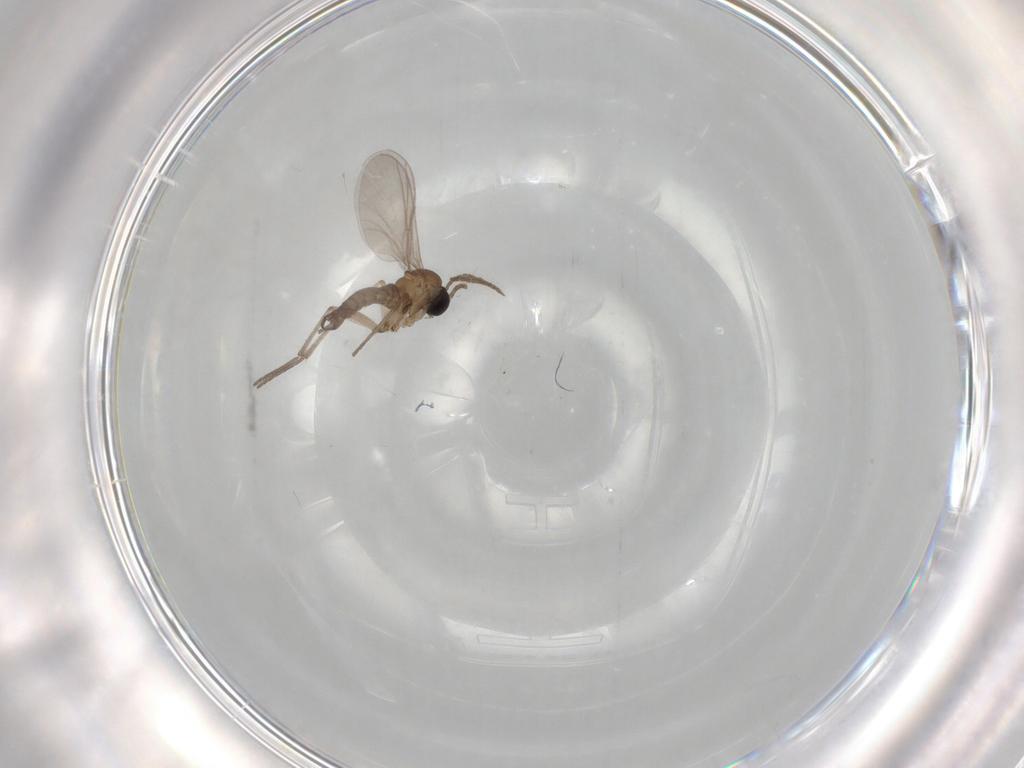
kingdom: Animalia
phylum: Arthropoda
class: Insecta
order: Diptera
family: Sciaridae
